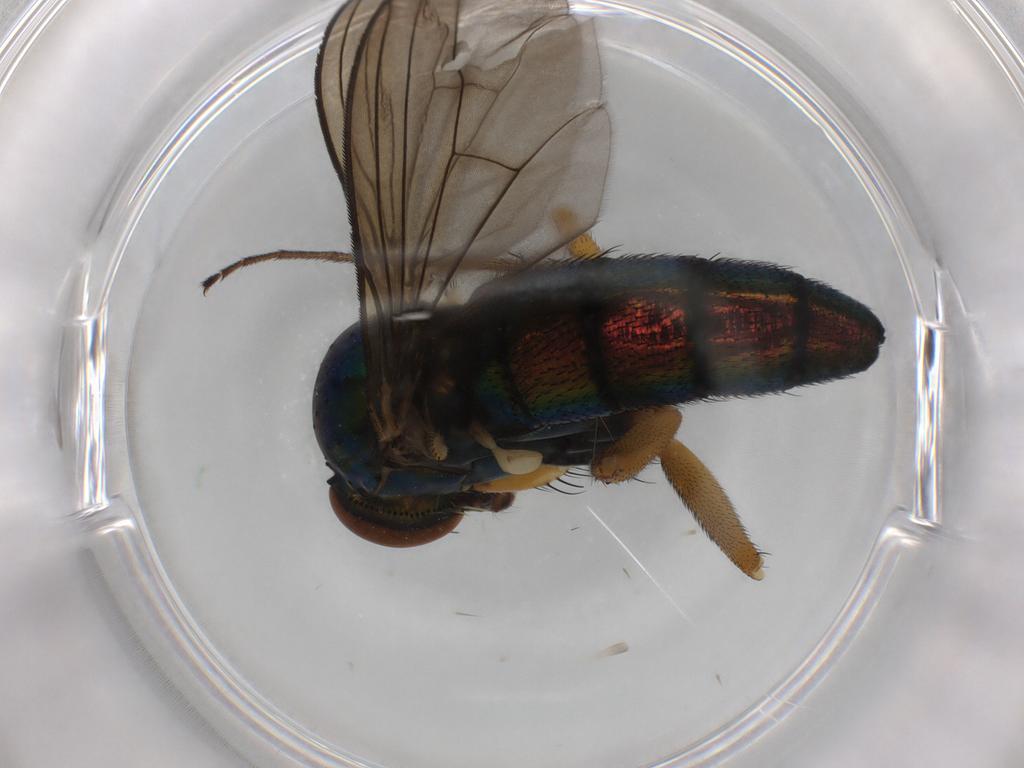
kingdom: Animalia
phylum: Arthropoda
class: Insecta
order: Diptera
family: Dolichopodidae
